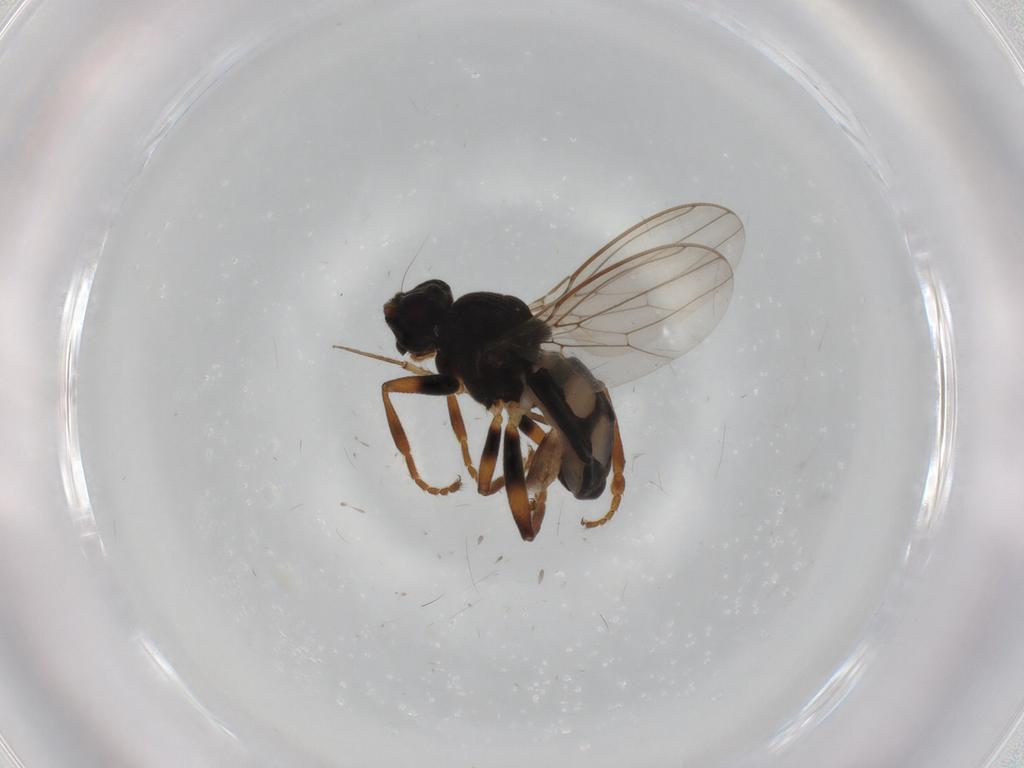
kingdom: Animalia
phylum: Arthropoda
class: Insecta
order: Diptera
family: Sphaeroceridae
